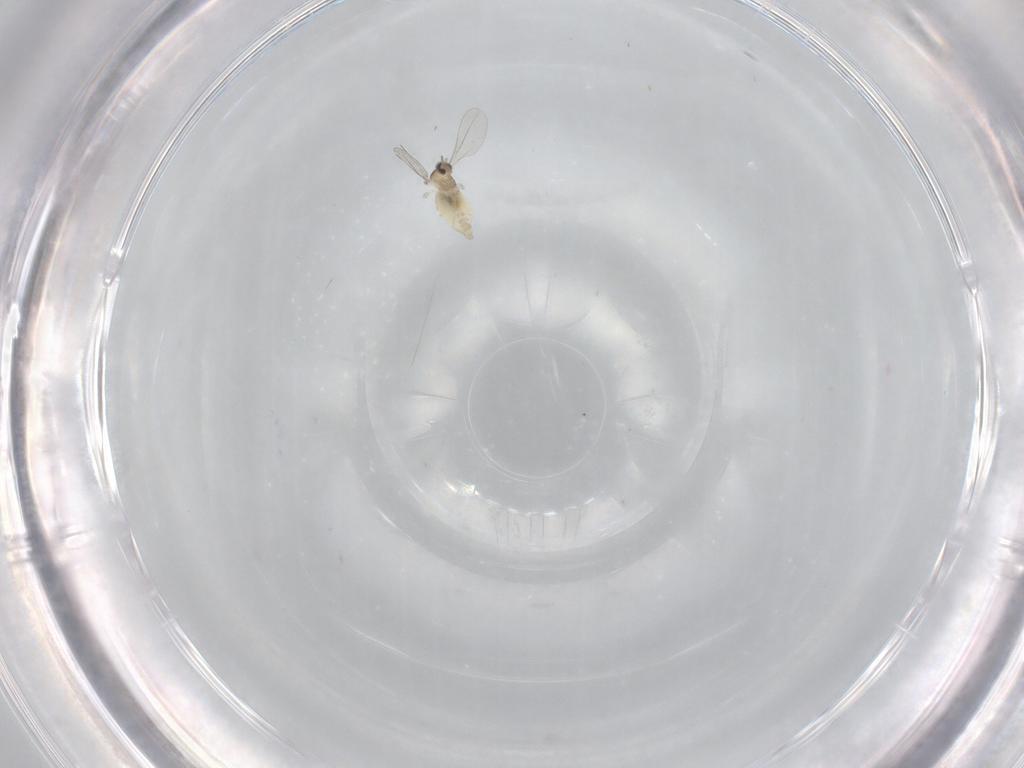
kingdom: Animalia
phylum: Arthropoda
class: Insecta
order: Diptera
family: Cecidomyiidae
